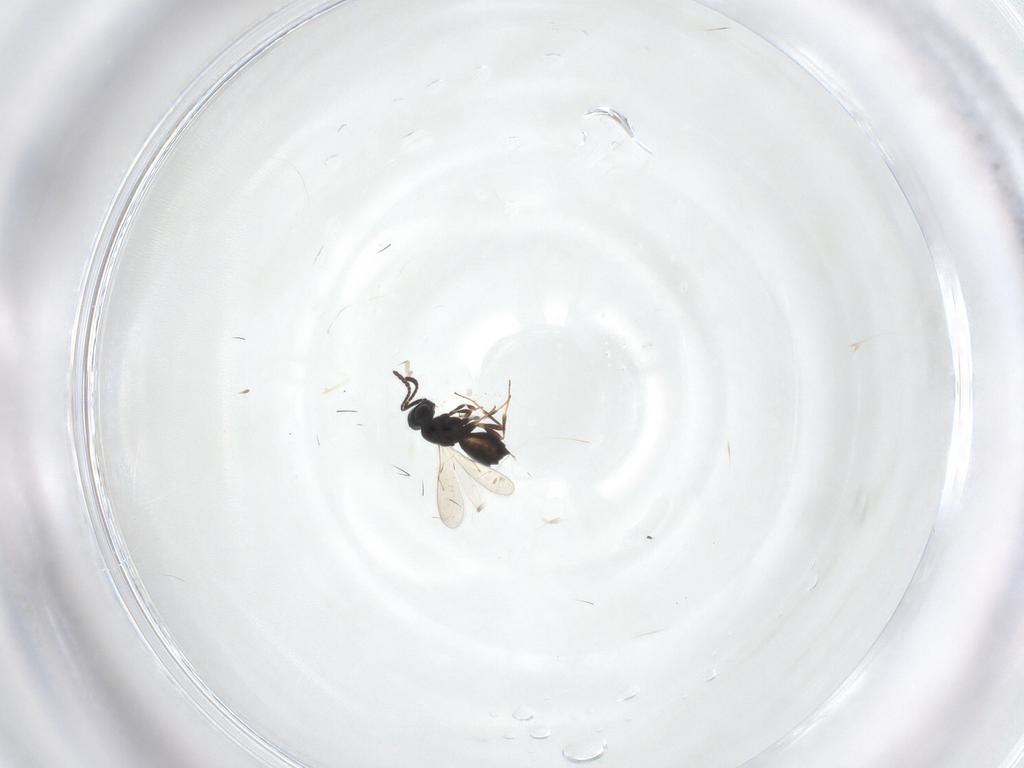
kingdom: Animalia
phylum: Arthropoda
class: Insecta
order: Hymenoptera
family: Scelionidae
